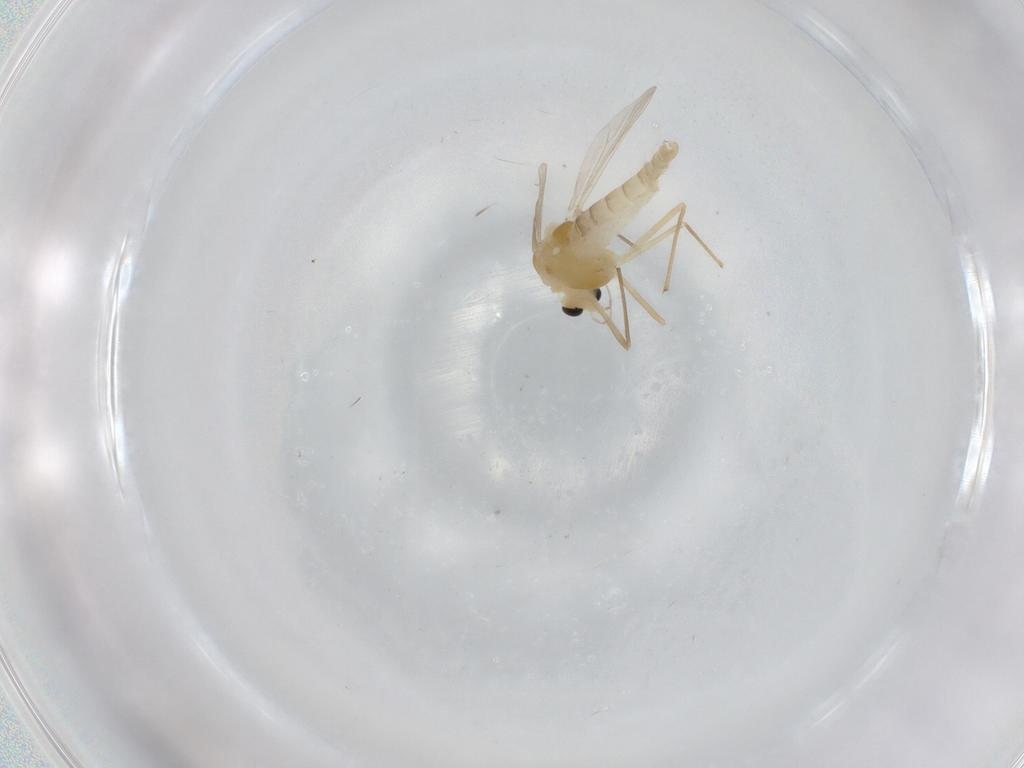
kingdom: Animalia
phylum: Arthropoda
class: Insecta
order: Diptera
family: Chironomidae
